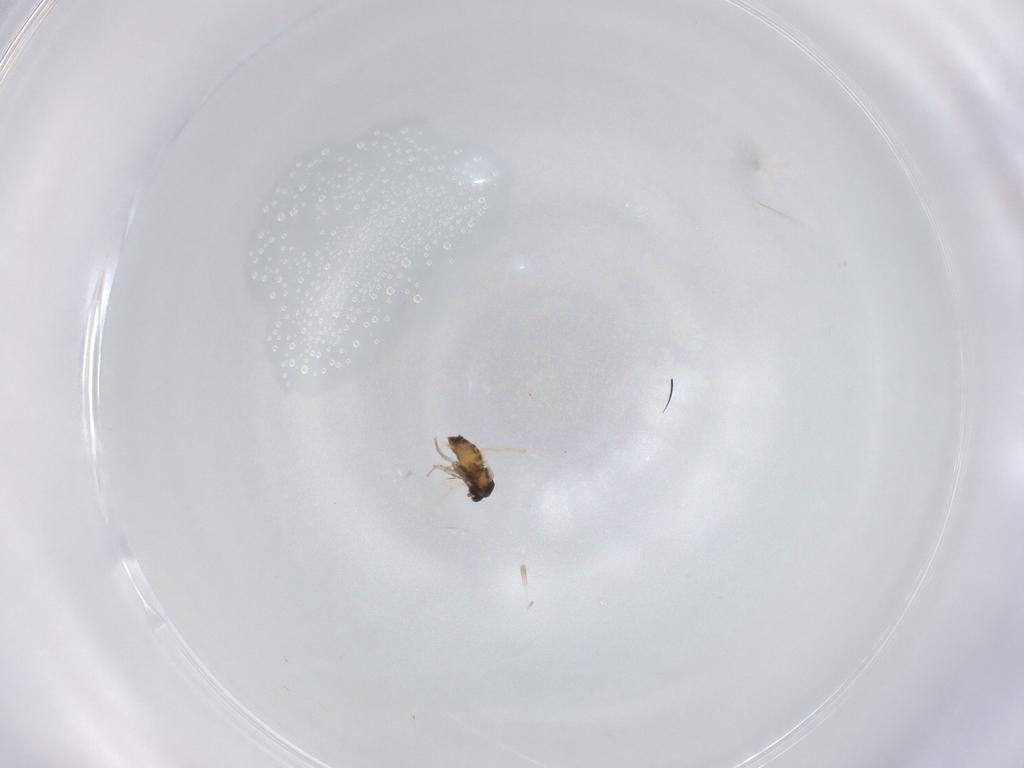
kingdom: Animalia
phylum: Arthropoda
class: Insecta
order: Diptera
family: Cecidomyiidae
